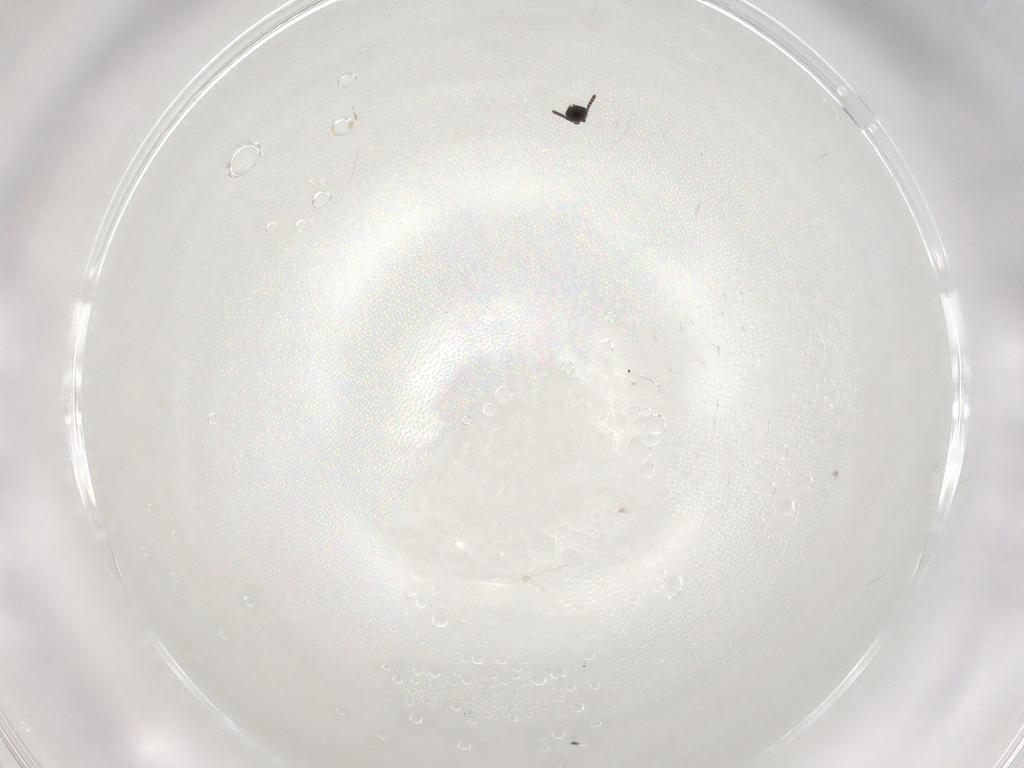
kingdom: Animalia
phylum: Arthropoda
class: Insecta
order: Hymenoptera
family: Scelionidae
